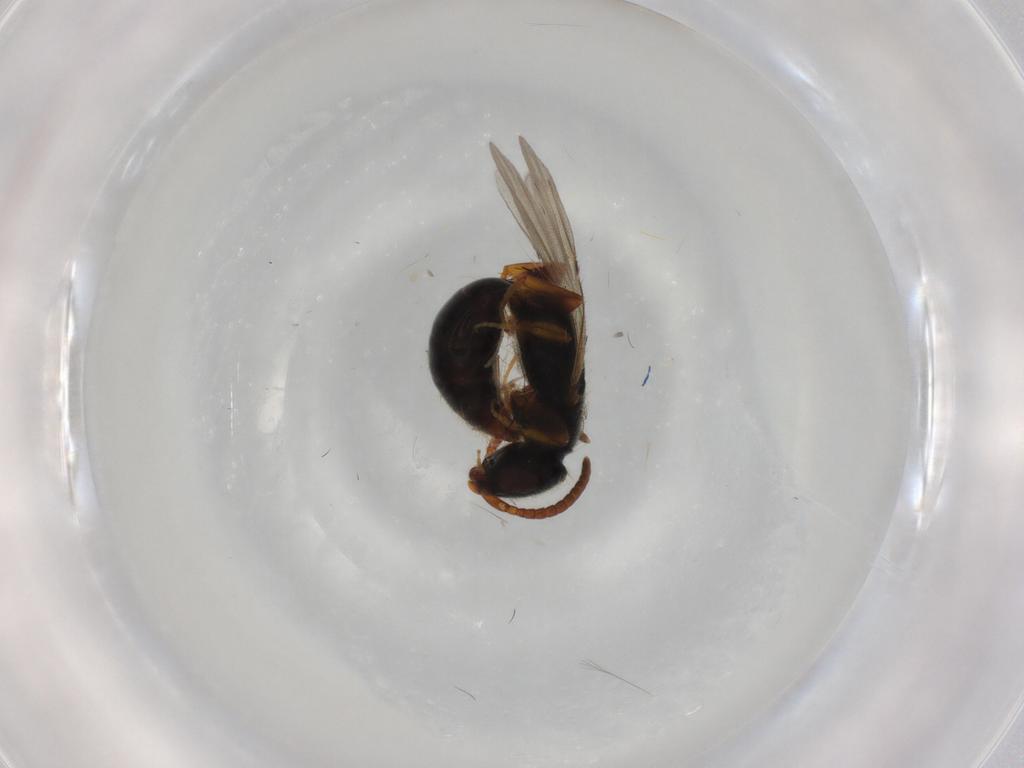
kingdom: Animalia
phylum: Arthropoda
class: Insecta
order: Hymenoptera
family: Bethylidae
